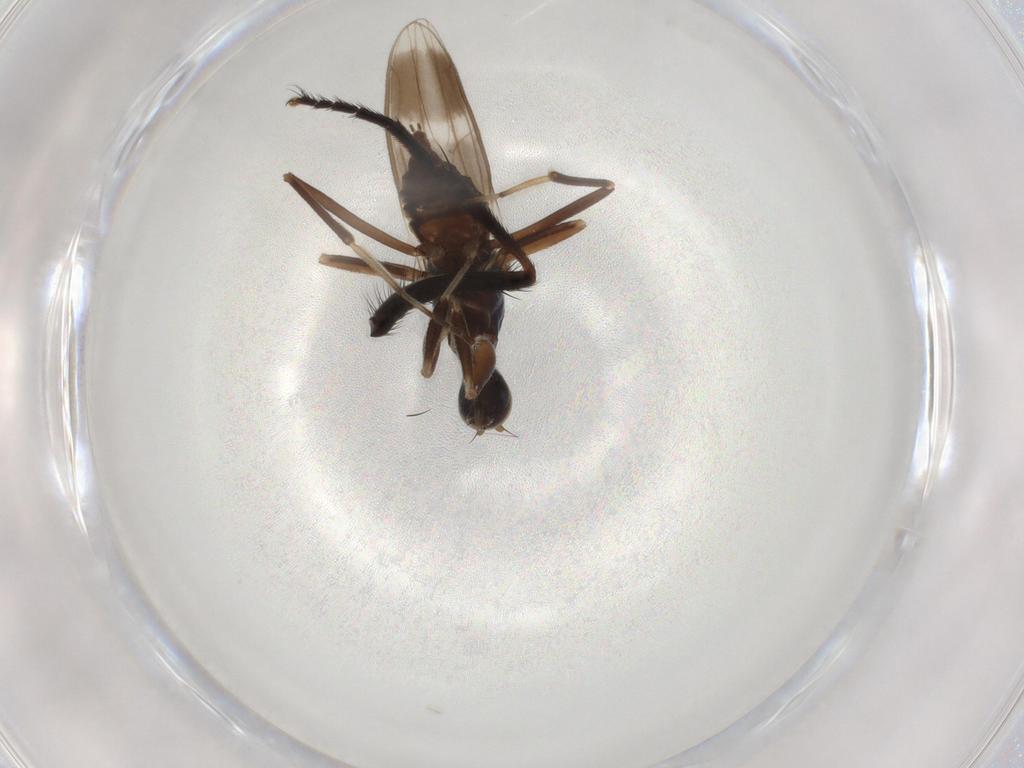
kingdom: Animalia
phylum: Arthropoda
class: Insecta
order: Diptera
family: Hybotidae
